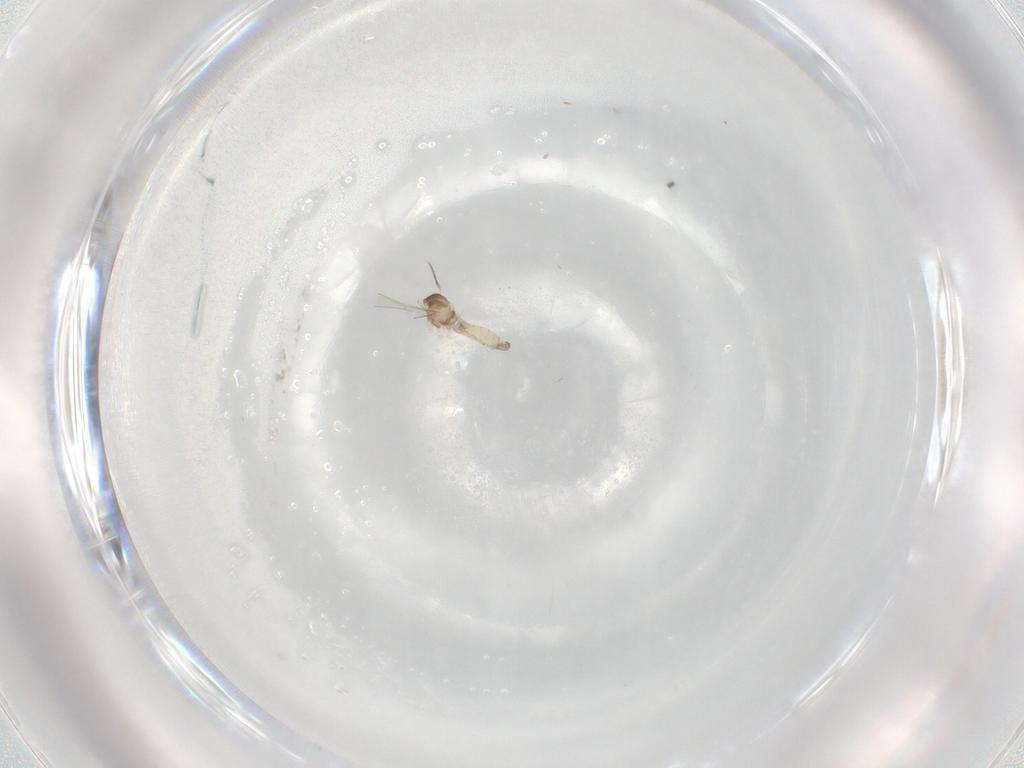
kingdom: Animalia
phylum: Arthropoda
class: Insecta
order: Diptera
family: Cecidomyiidae
